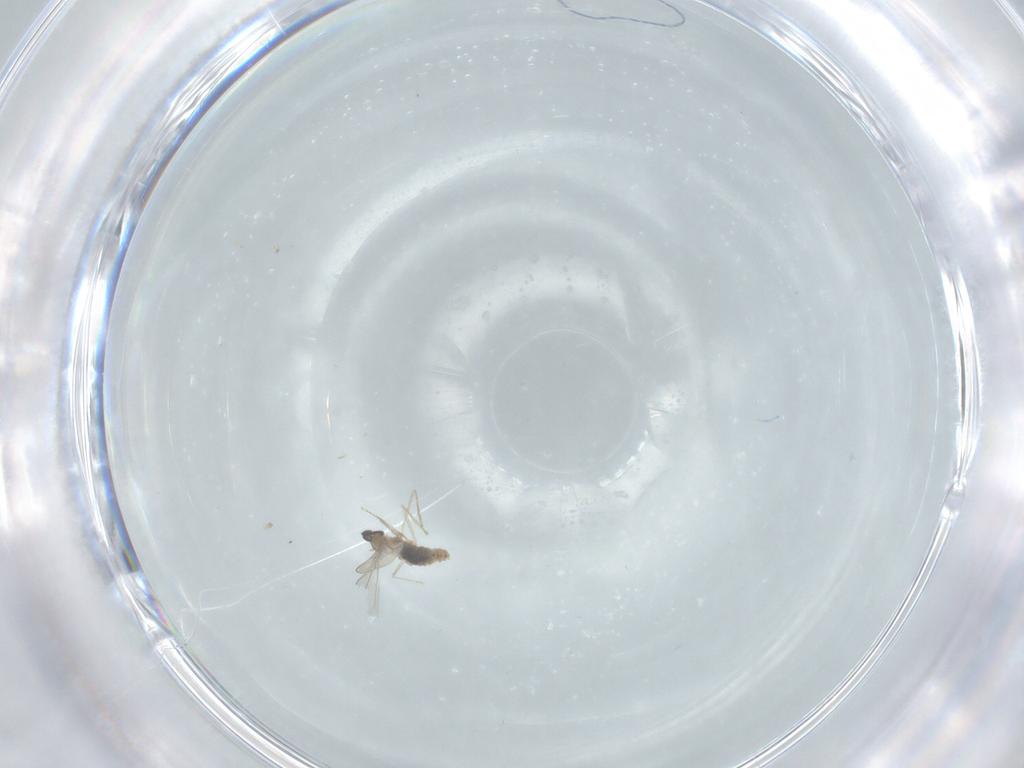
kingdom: Animalia
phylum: Arthropoda
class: Insecta
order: Diptera
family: Cecidomyiidae
